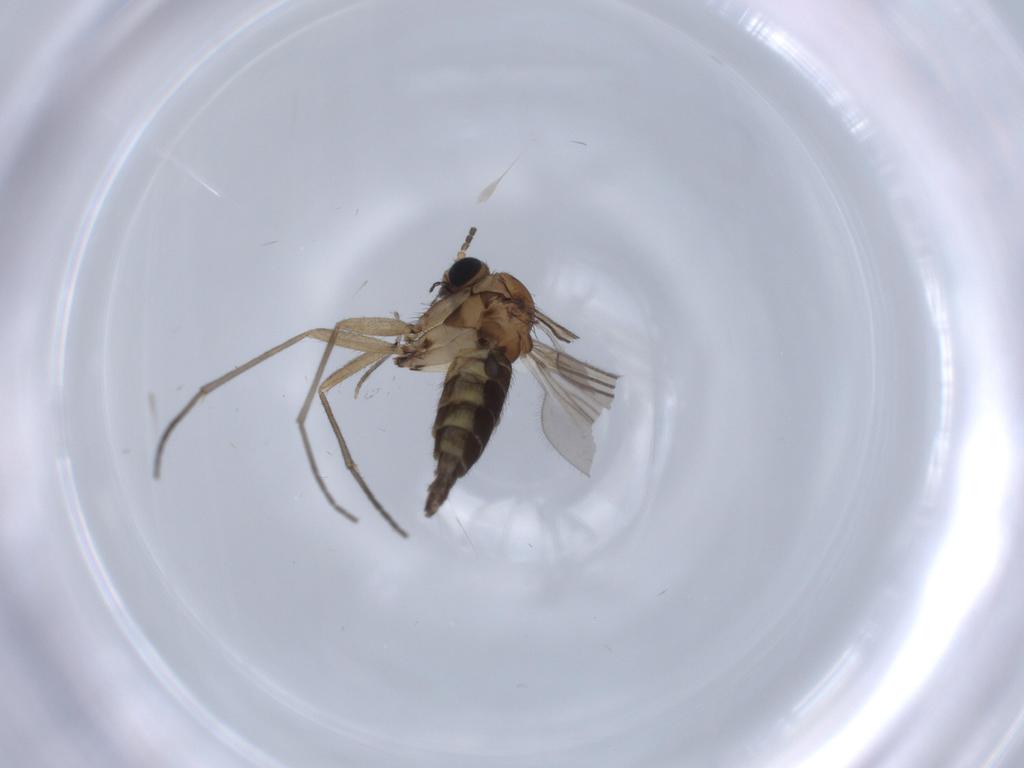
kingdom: Animalia
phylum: Arthropoda
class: Insecta
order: Diptera
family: Sciaridae
